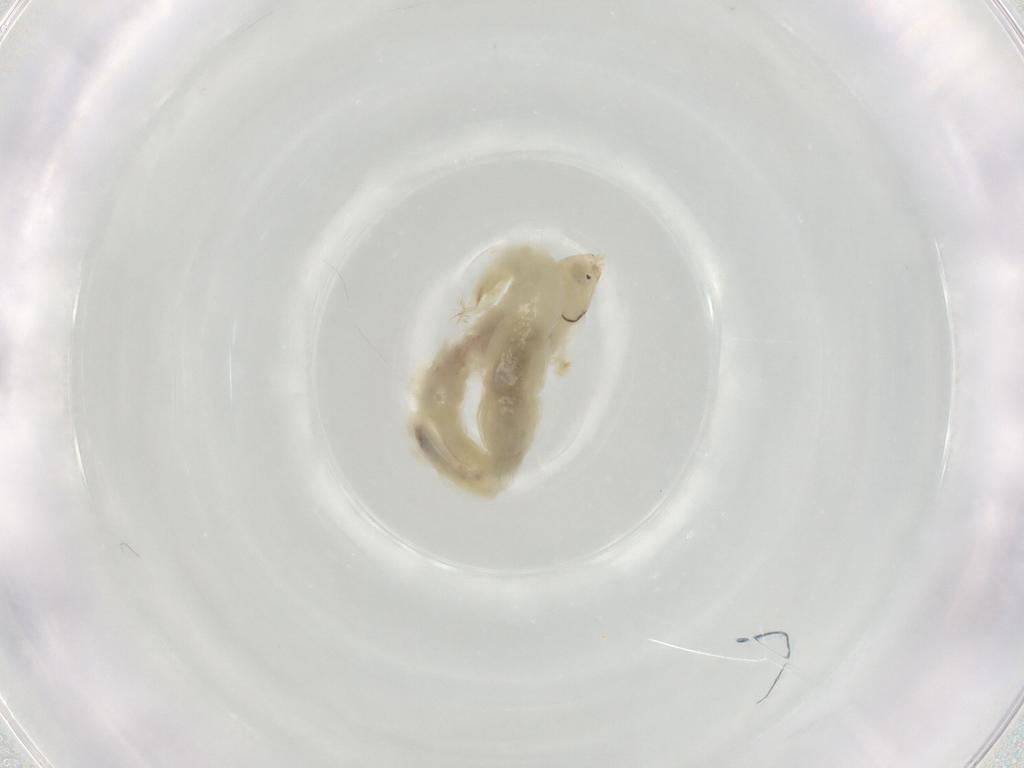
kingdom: Animalia
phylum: Arthropoda
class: Insecta
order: Diptera
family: Chironomidae
